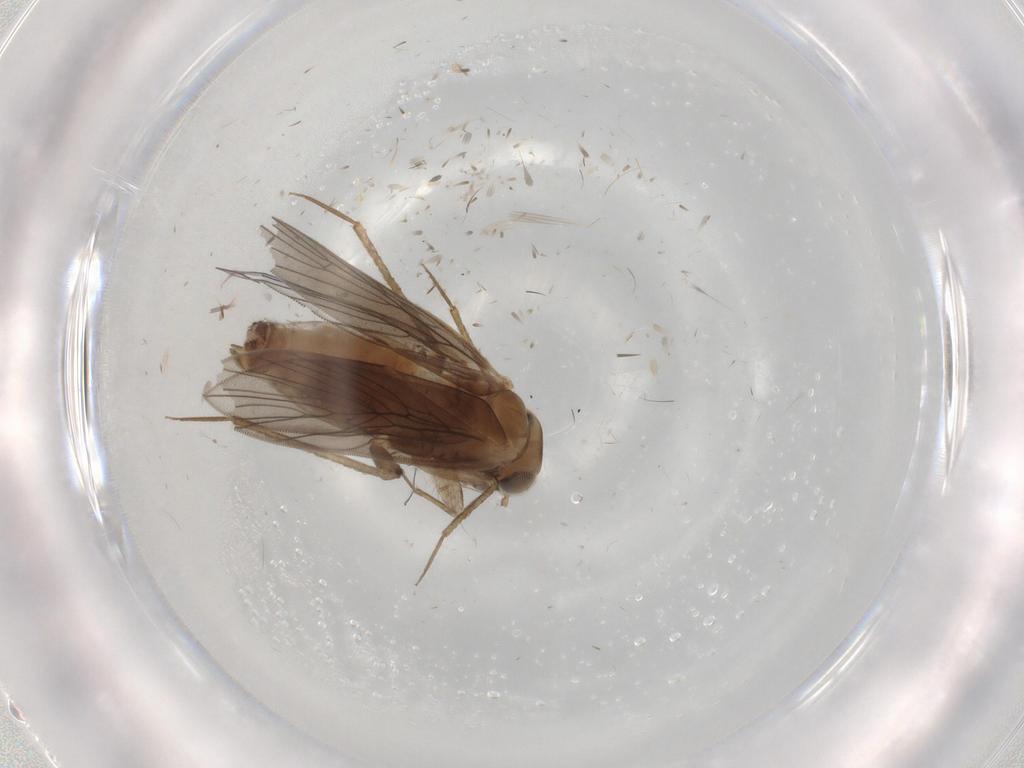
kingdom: Animalia
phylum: Arthropoda
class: Insecta
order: Psocodea
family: Lepidopsocidae
